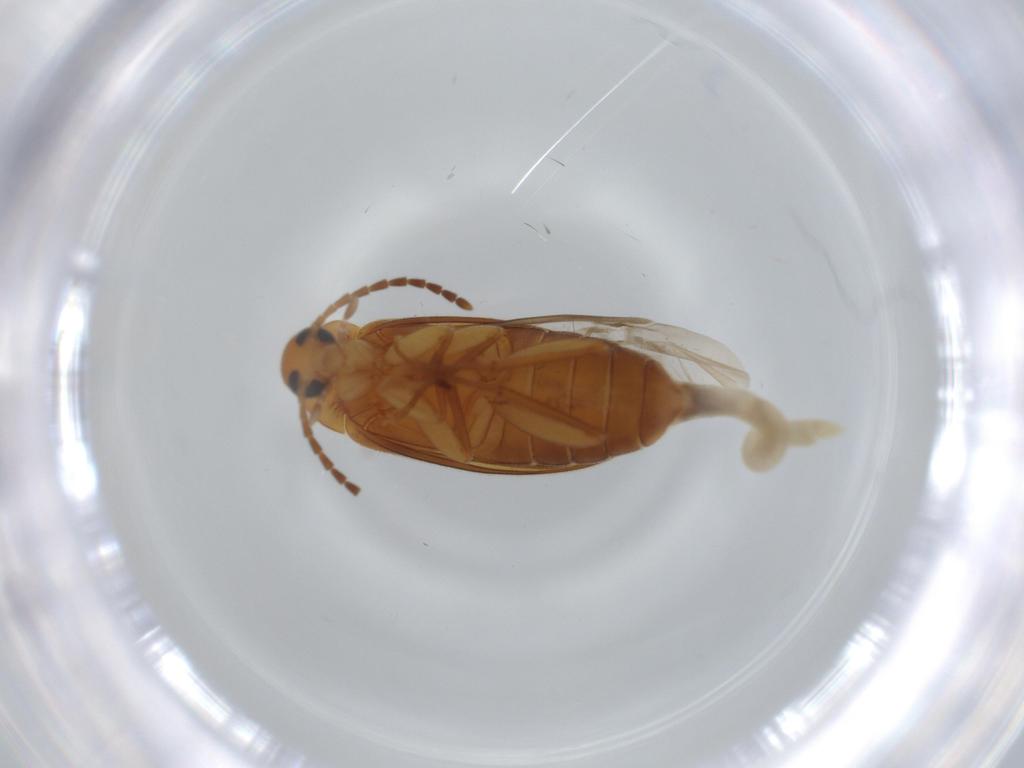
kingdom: Animalia
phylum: Arthropoda
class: Insecta
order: Coleoptera
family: Scraptiidae
